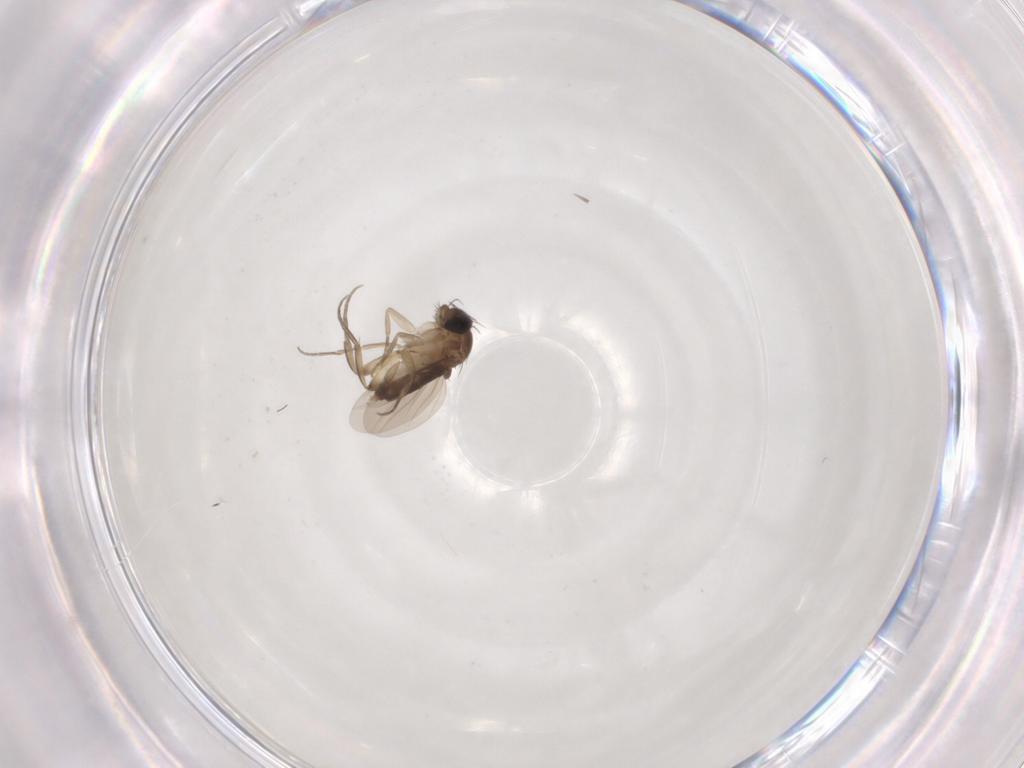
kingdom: Animalia
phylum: Arthropoda
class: Insecta
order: Diptera
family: Phoridae
